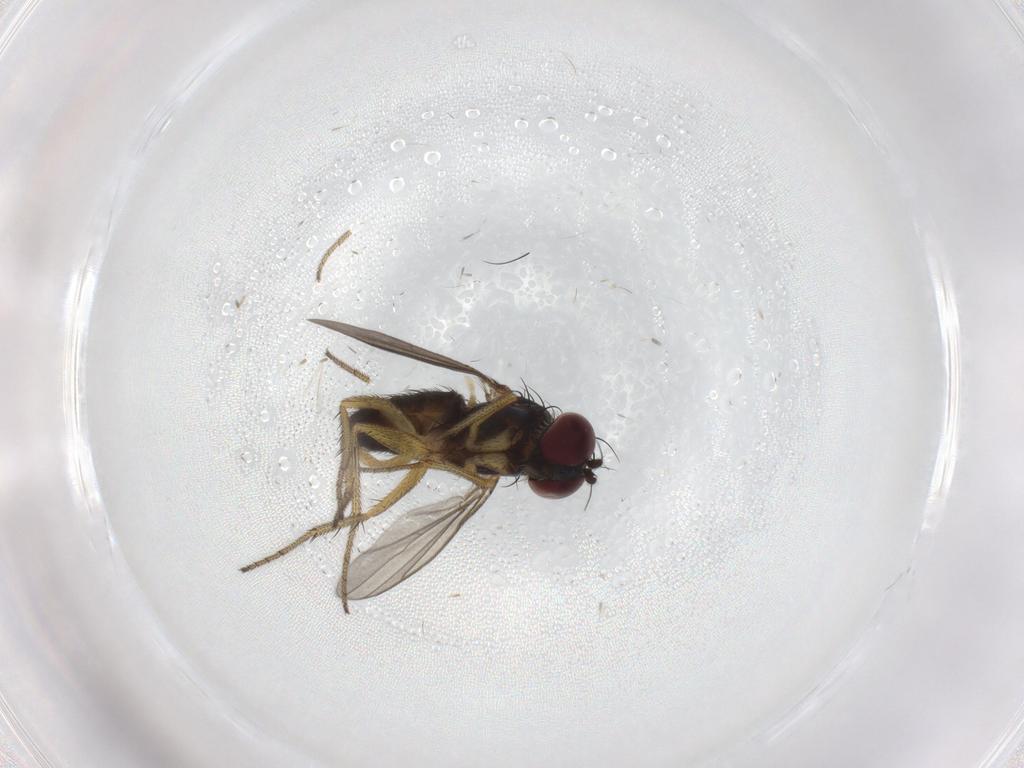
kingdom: Animalia
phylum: Arthropoda
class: Insecta
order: Diptera
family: Dolichopodidae
